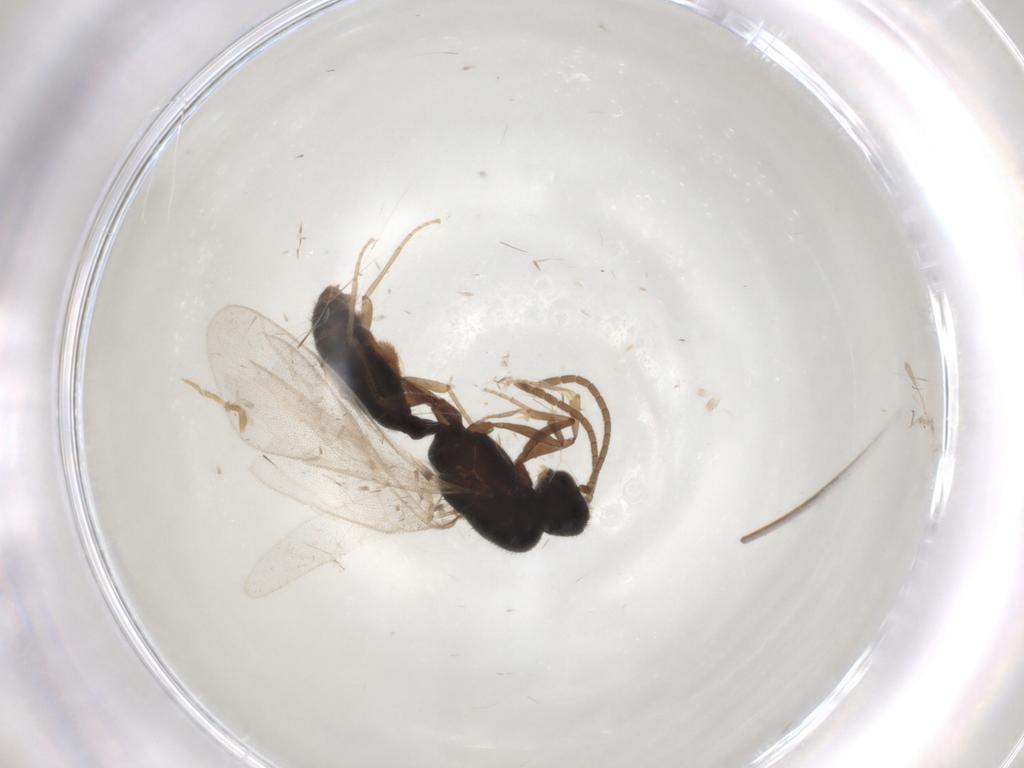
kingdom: Animalia
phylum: Arthropoda
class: Insecta
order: Hymenoptera
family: Formicidae
